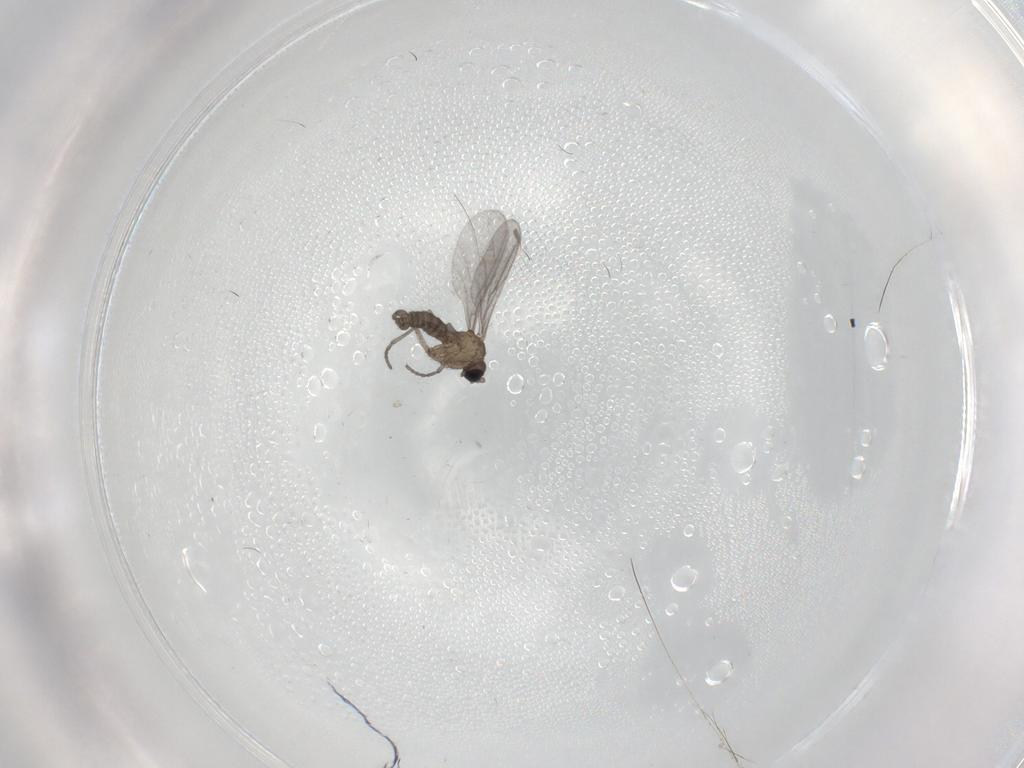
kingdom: Animalia
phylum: Arthropoda
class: Insecta
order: Diptera
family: Sciaridae
